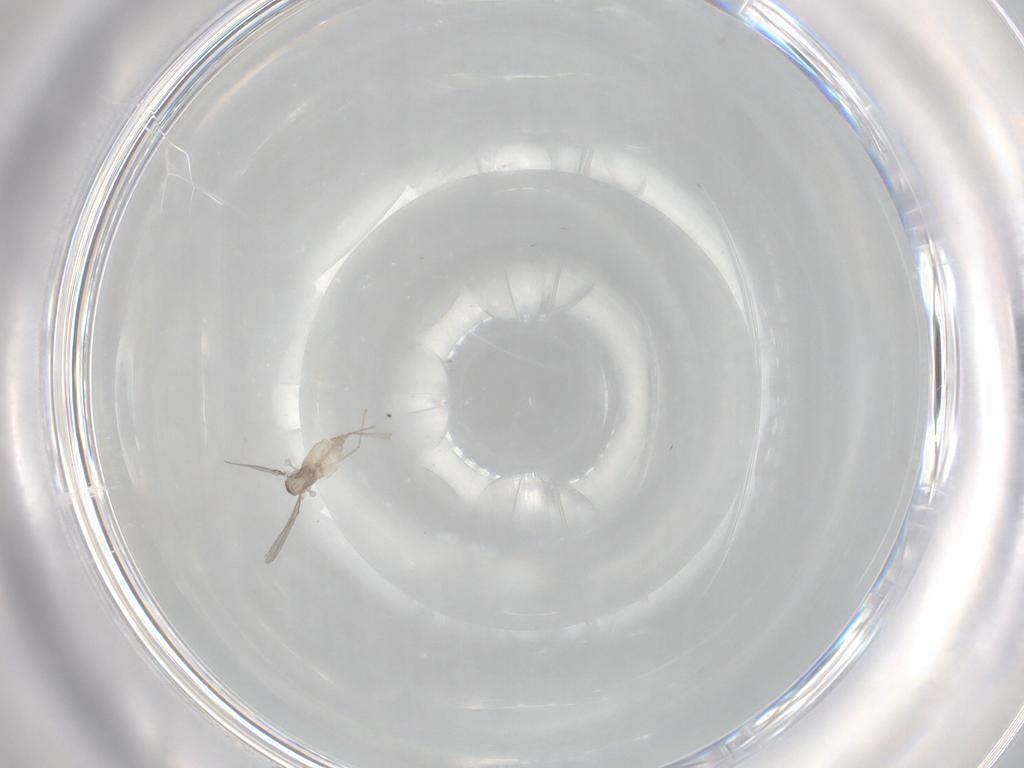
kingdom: Animalia
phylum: Arthropoda
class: Insecta
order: Diptera
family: Cecidomyiidae
